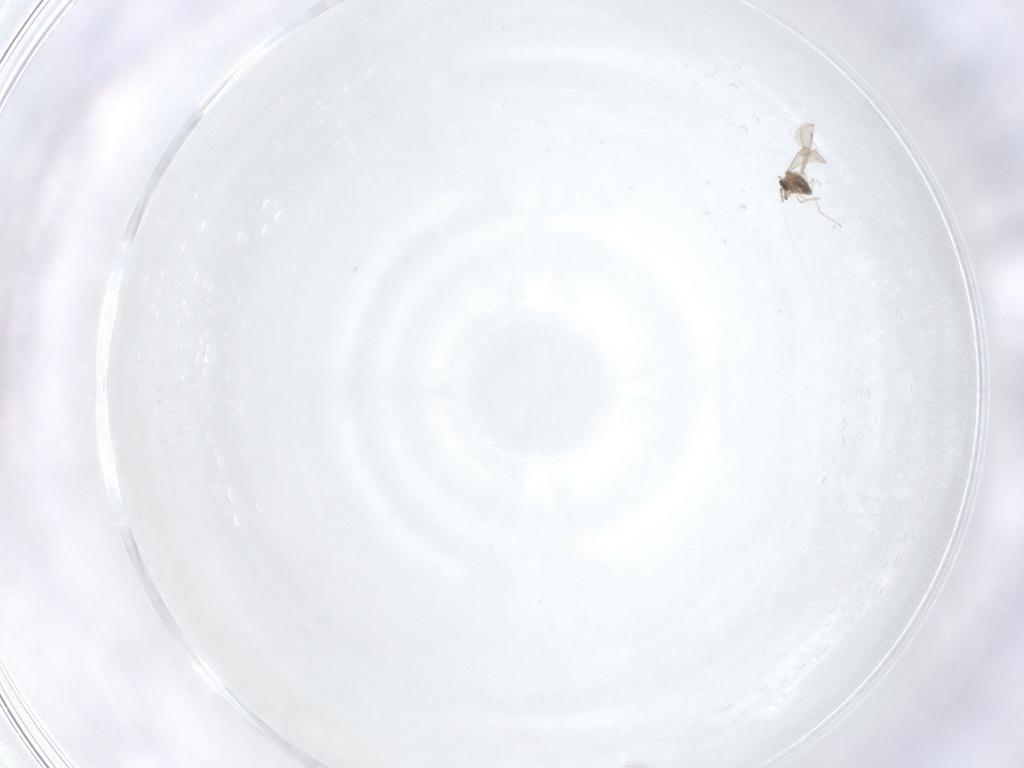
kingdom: Animalia
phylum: Arthropoda
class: Insecta
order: Diptera
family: Cecidomyiidae
